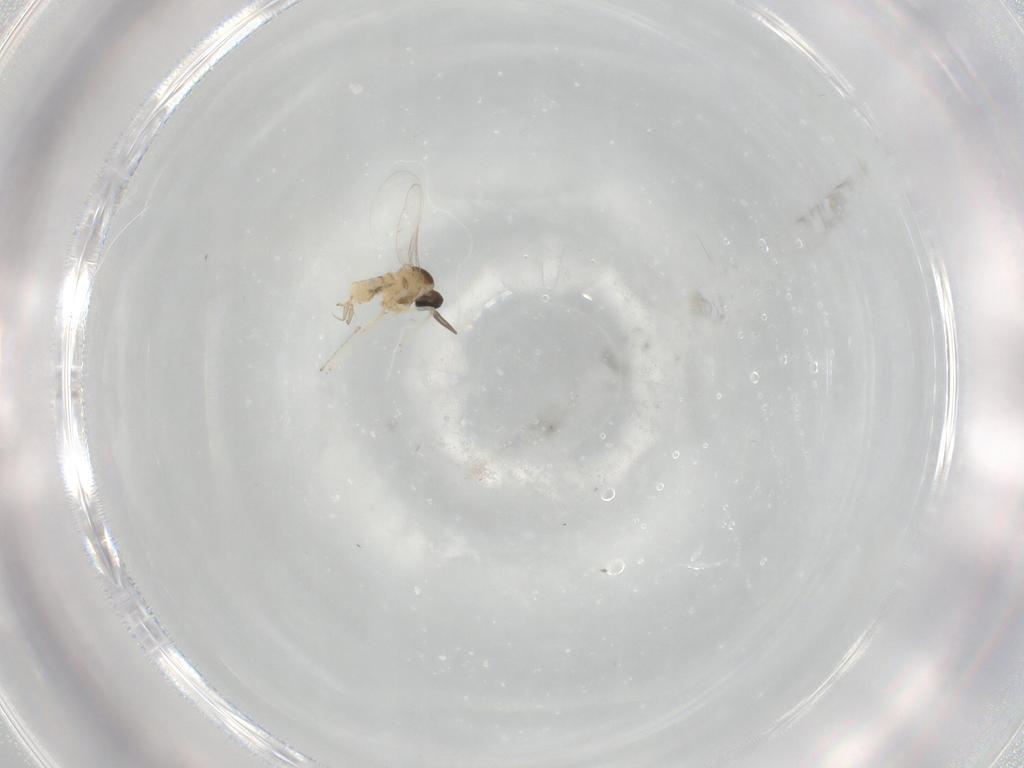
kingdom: Animalia
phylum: Arthropoda
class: Insecta
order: Diptera
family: Cecidomyiidae
